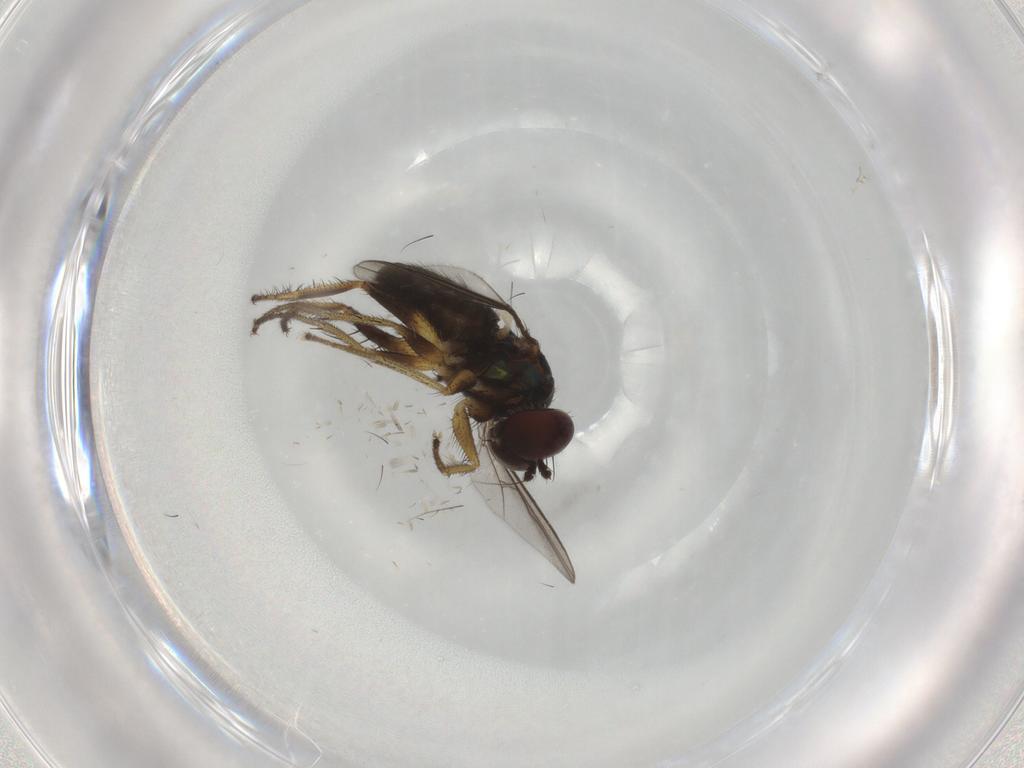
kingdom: Animalia
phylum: Arthropoda
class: Insecta
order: Diptera
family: Dolichopodidae
